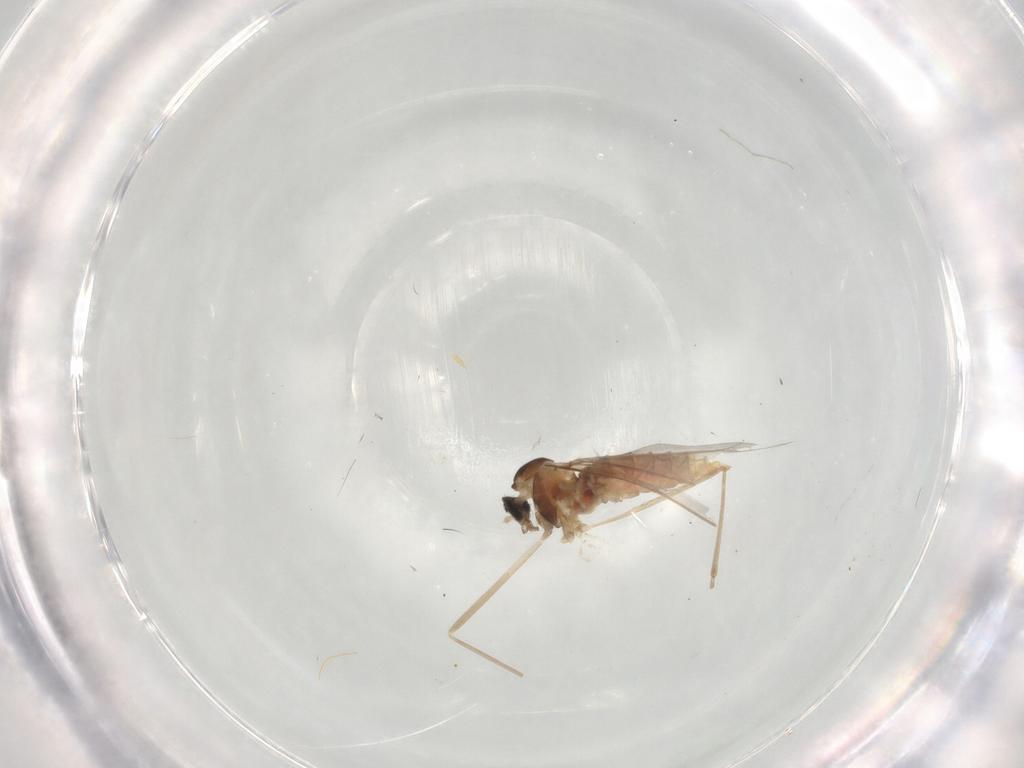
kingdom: Animalia
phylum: Arthropoda
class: Insecta
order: Diptera
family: Cecidomyiidae
